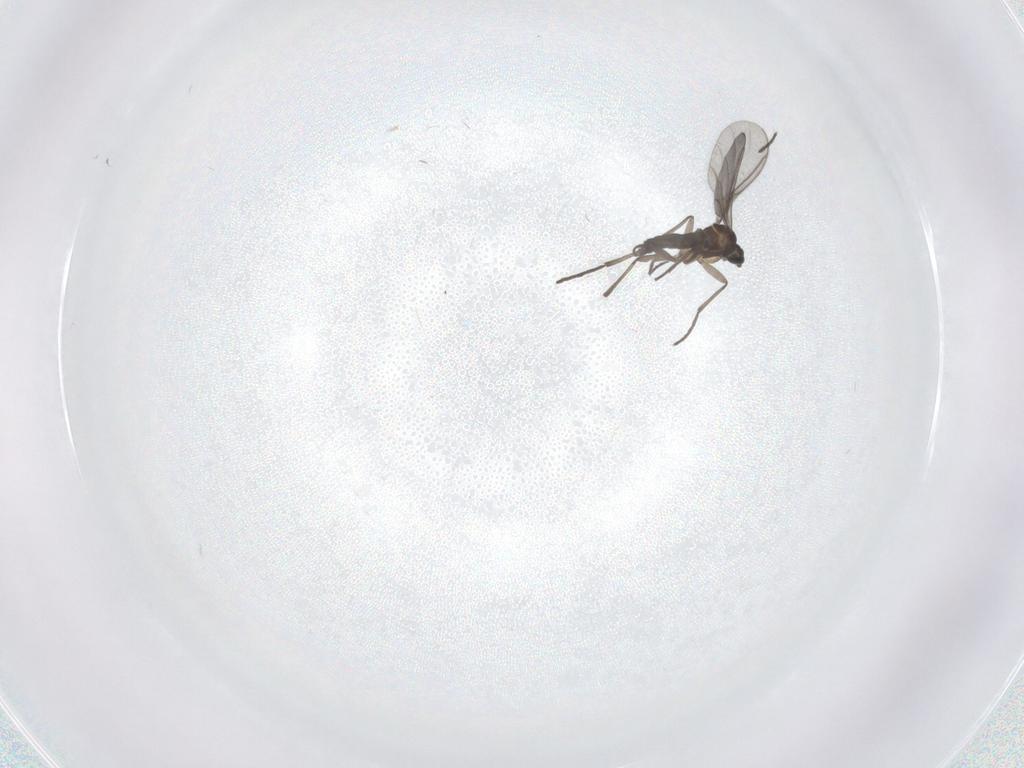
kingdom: Animalia
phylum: Arthropoda
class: Insecta
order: Diptera
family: Sciaridae
